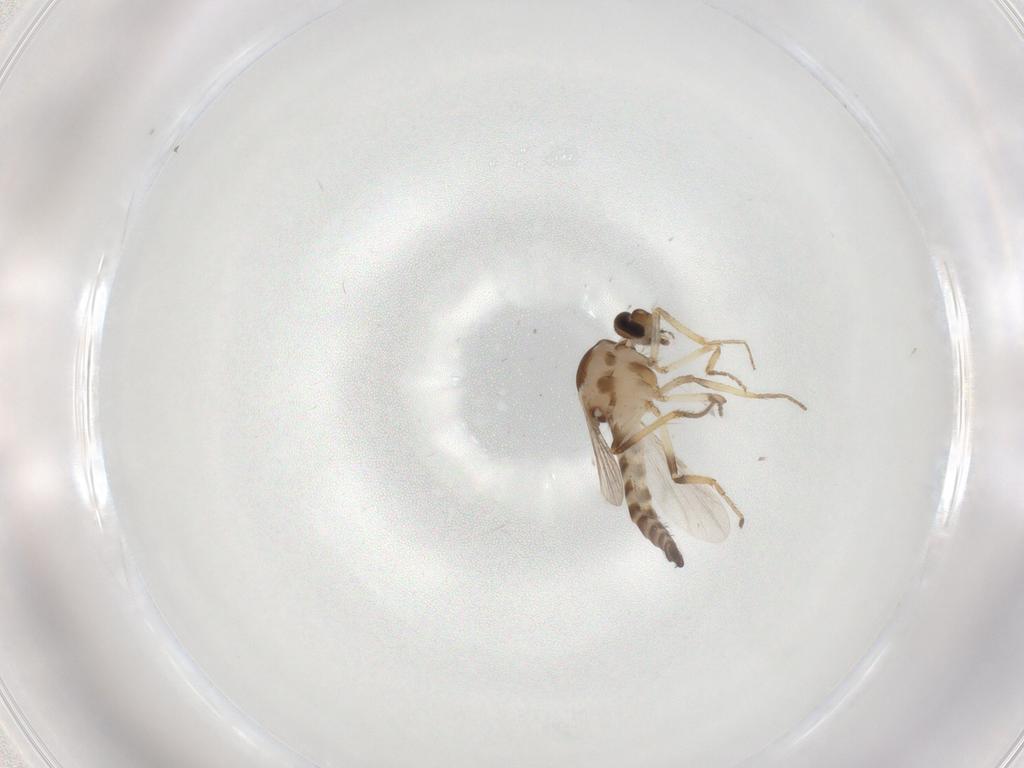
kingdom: Animalia
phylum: Arthropoda
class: Insecta
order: Diptera
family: Ceratopogonidae
